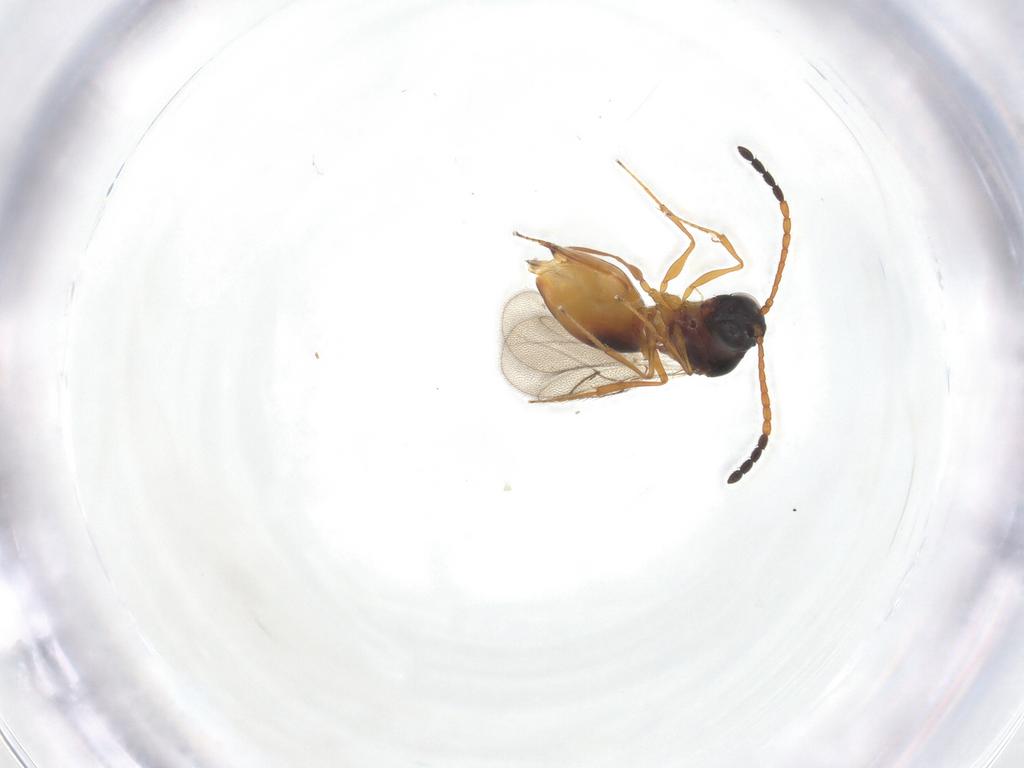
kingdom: Animalia
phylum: Arthropoda
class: Insecta
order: Hymenoptera
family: Figitidae
